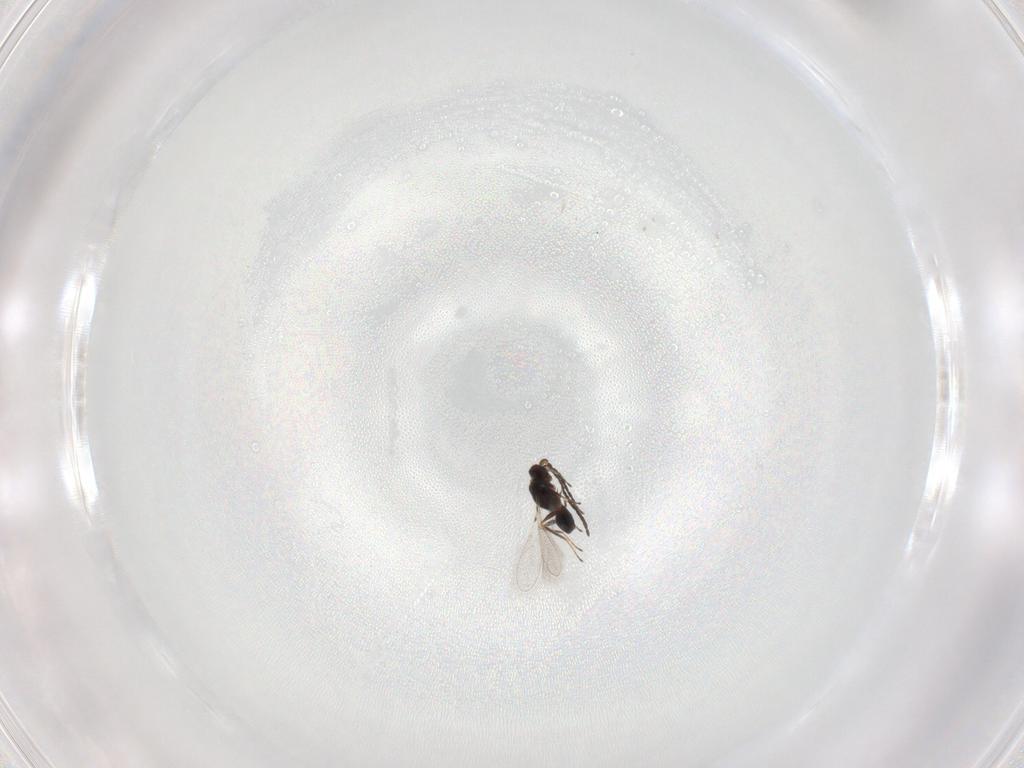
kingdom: Animalia
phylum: Arthropoda
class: Insecta
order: Hymenoptera
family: Mymaridae
